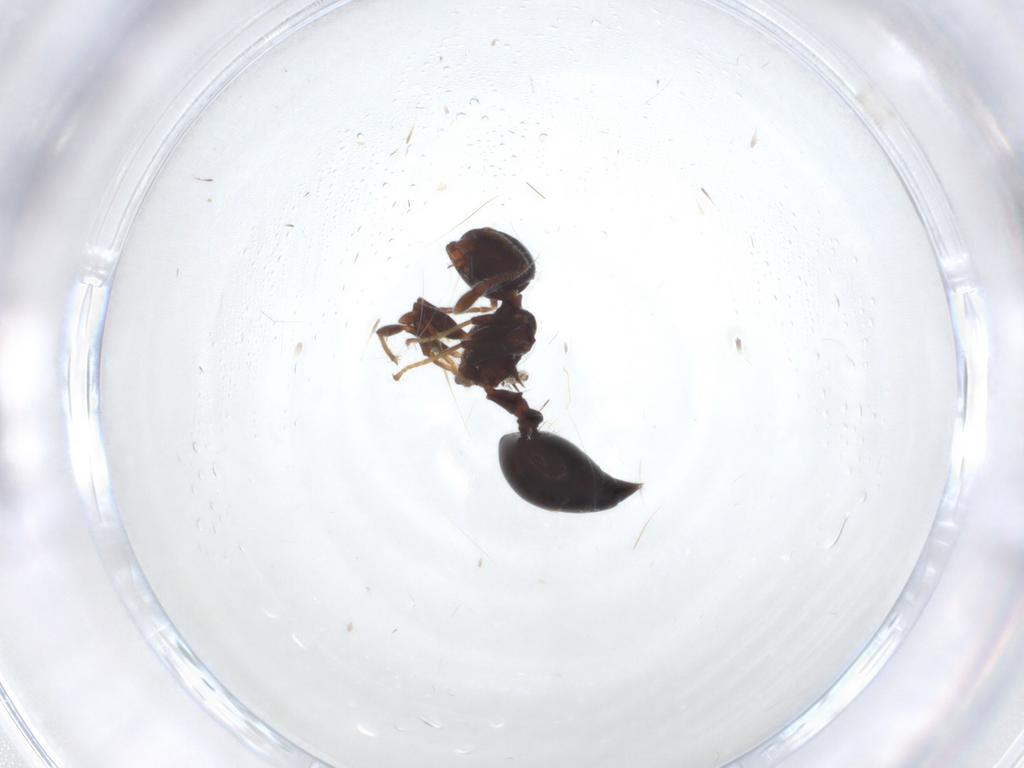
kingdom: Animalia
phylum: Arthropoda
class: Insecta
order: Hymenoptera
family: Formicidae
